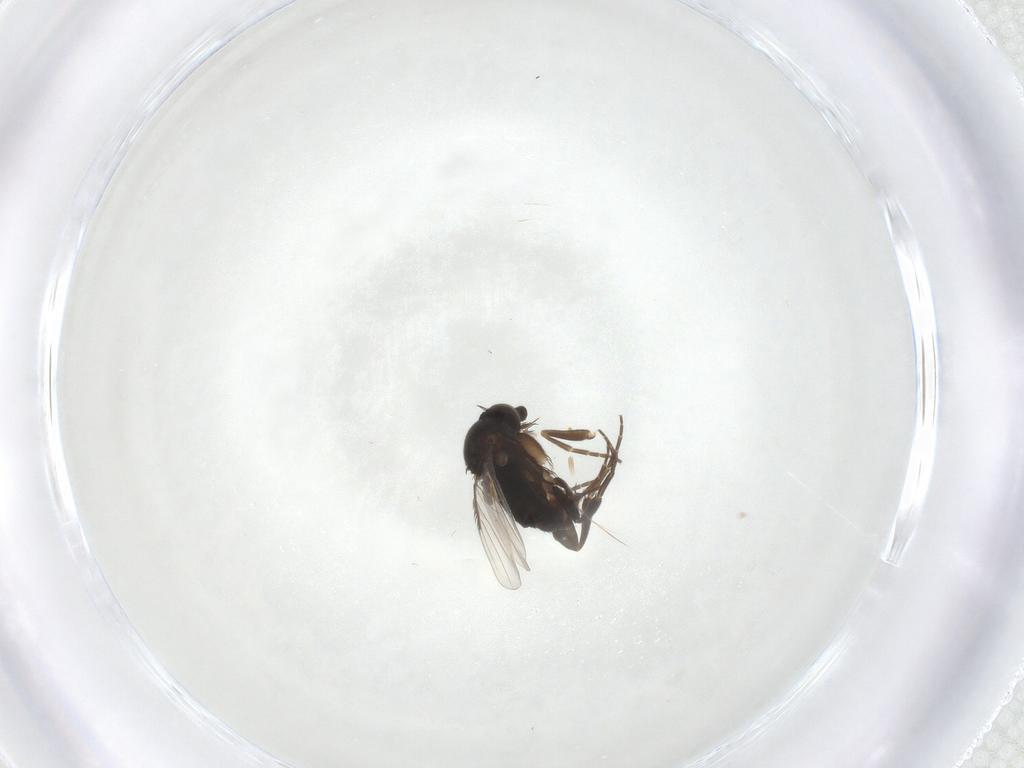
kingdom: Animalia
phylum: Arthropoda
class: Insecta
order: Diptera
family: Phoridae
